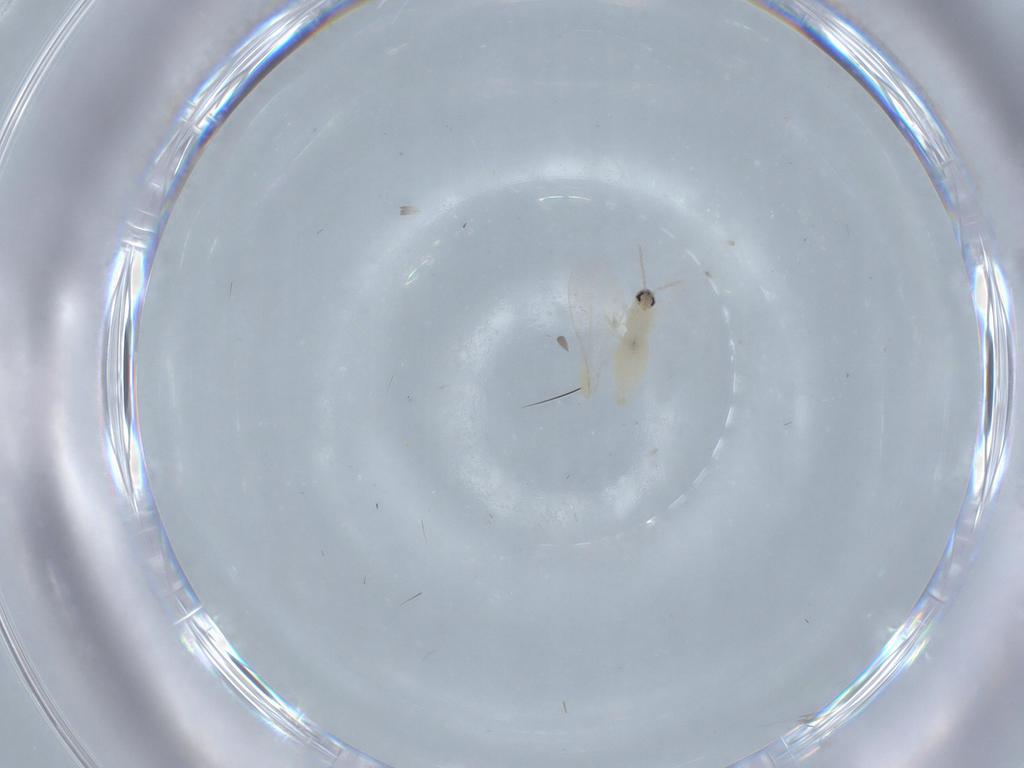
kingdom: Animalia
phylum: Arthropoda
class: Insecta
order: Diptera
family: Cecidomyiidae
